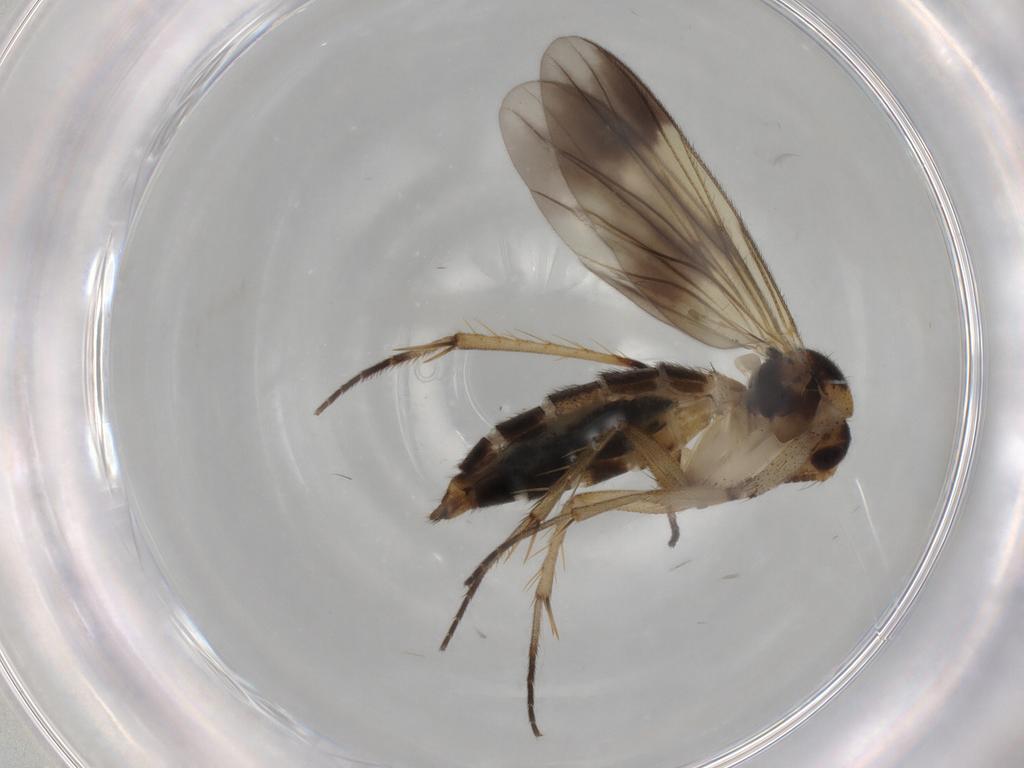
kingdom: Animalia
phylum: Arthropoda
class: Insecta
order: Diptera
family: Mycetophilidae
